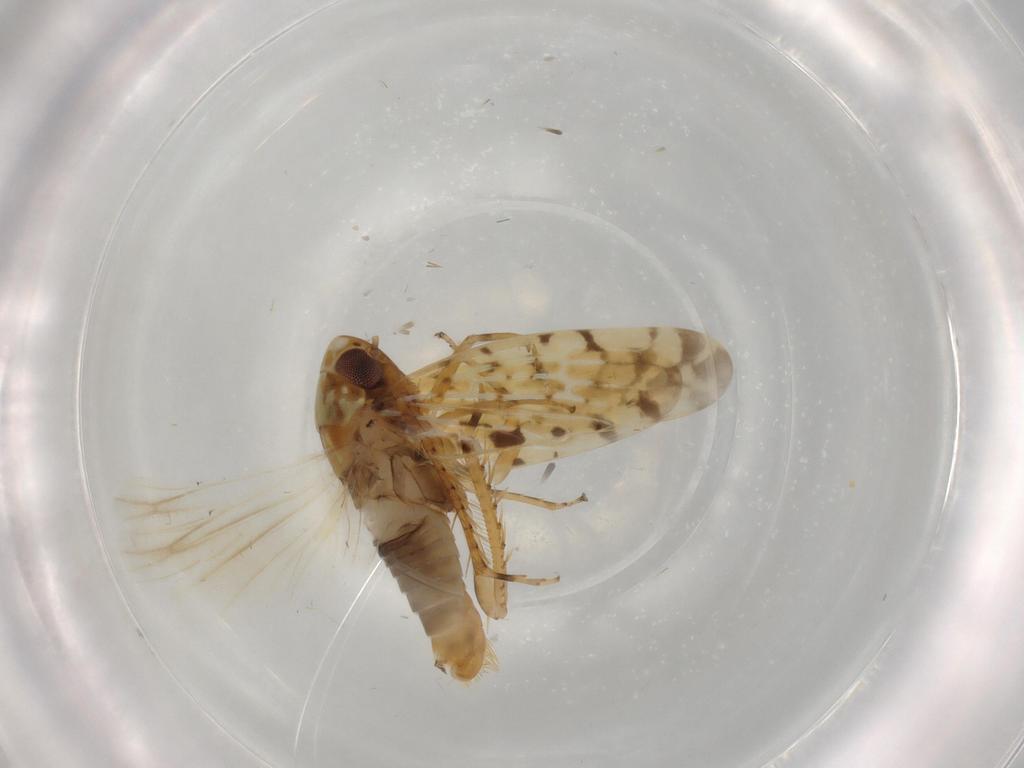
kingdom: Animalia
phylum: Arthropoda
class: Insecta
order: Hemiptera
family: Cicadellidae
